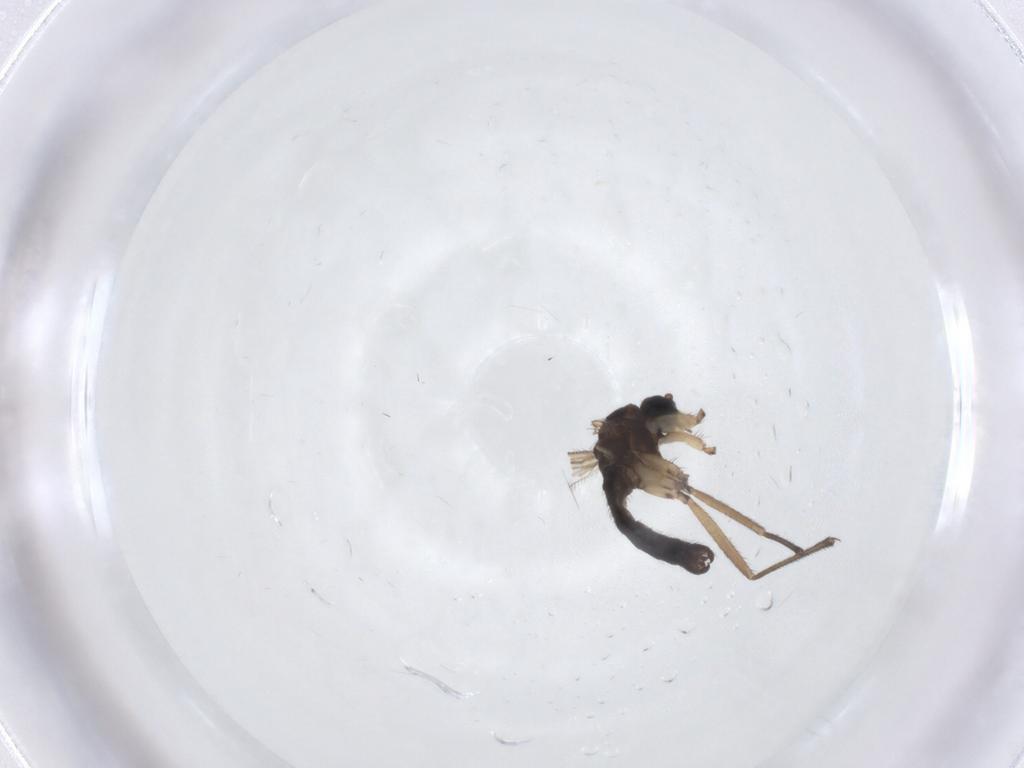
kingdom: Animalia
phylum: Arthropoda
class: Insecta
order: Diptera
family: Sciaridae
